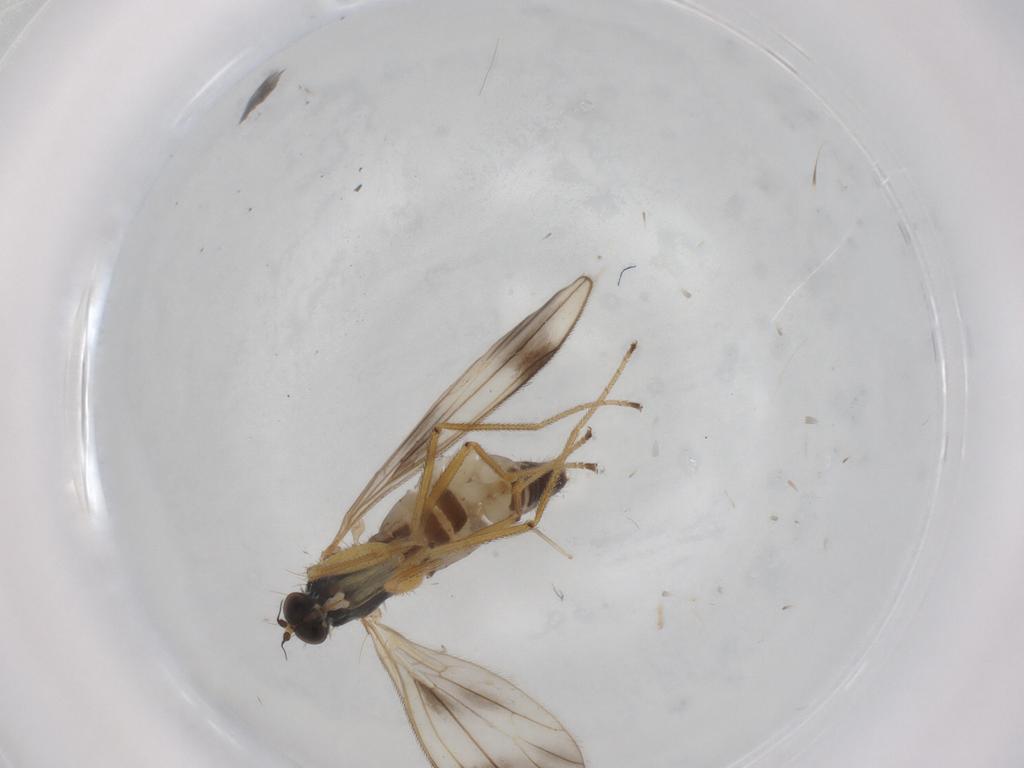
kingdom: Animalia
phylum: Arthropoda
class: Insecta
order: Diptera
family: Empididae
